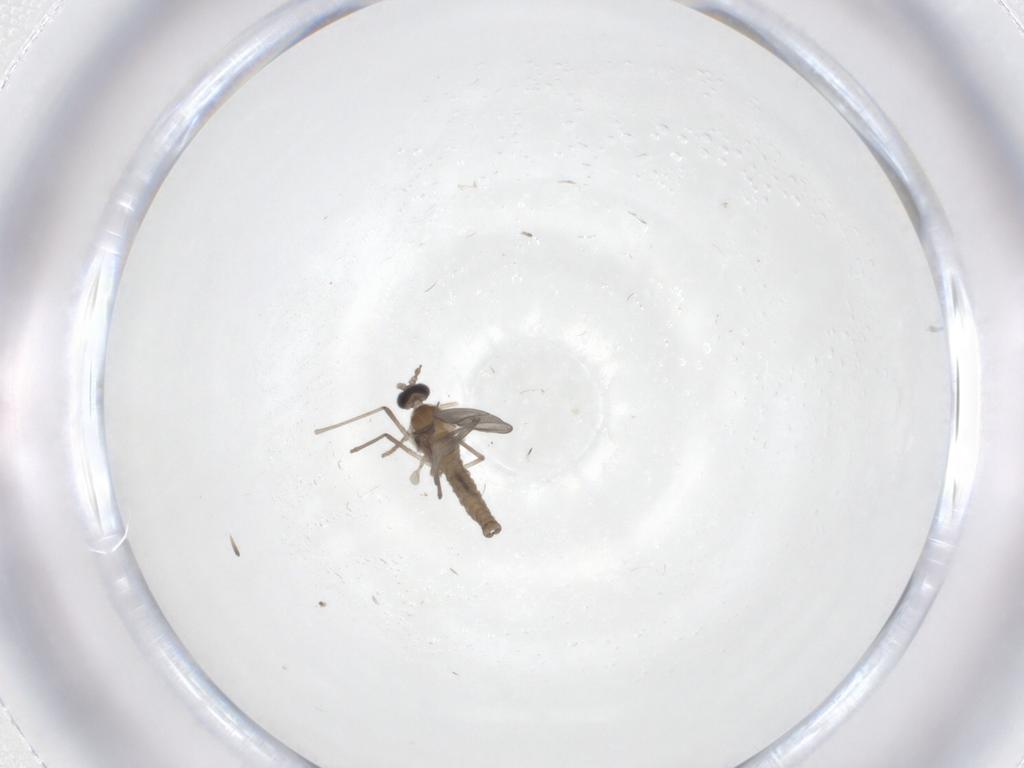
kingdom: Animalia
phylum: Arthropoda
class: Insecta
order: Diptera
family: Cecidomyiidae
